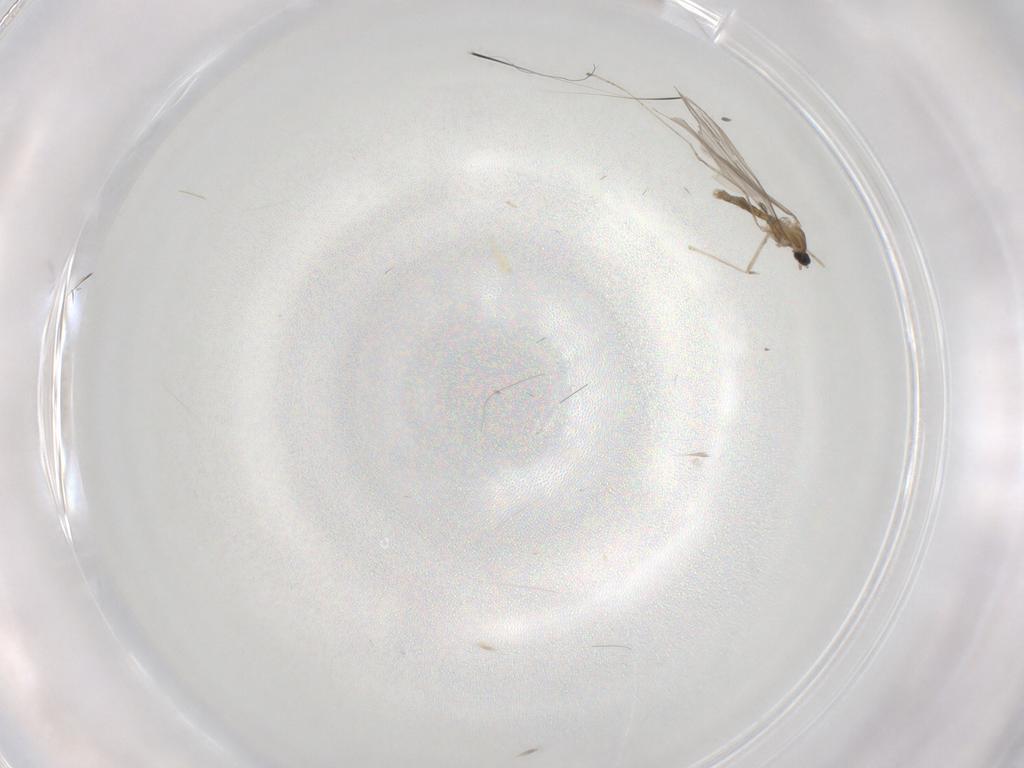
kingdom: Animalia
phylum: Arthropoda
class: Insecta
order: Diptera
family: Cecidomyiidae
